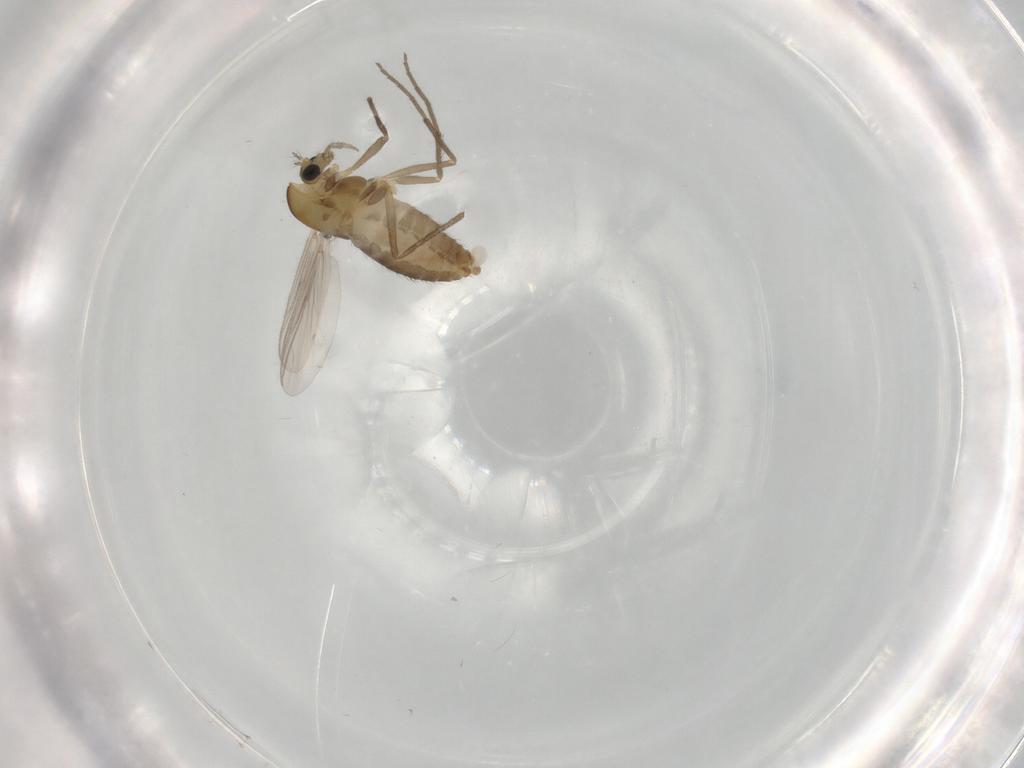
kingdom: Animalia
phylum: Arthropoda
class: Insecta
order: Diptera
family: Chironomidae
